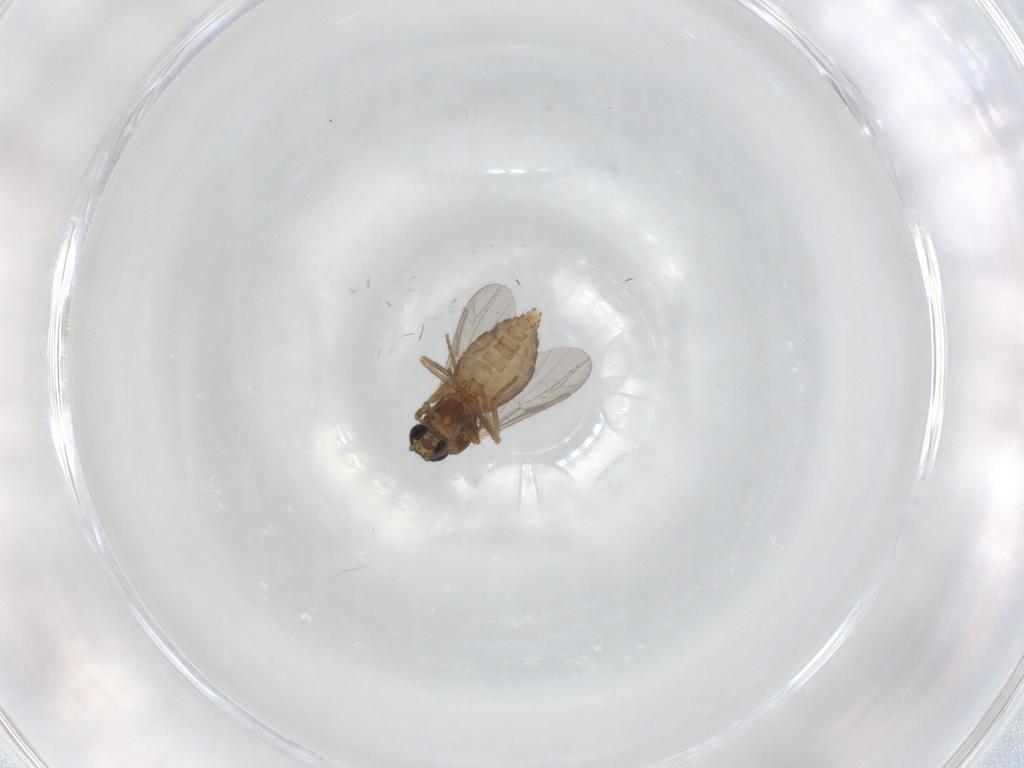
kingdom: Animalia
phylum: Arthropoda
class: Insecta
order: Diptera
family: Ceratopogonidae
